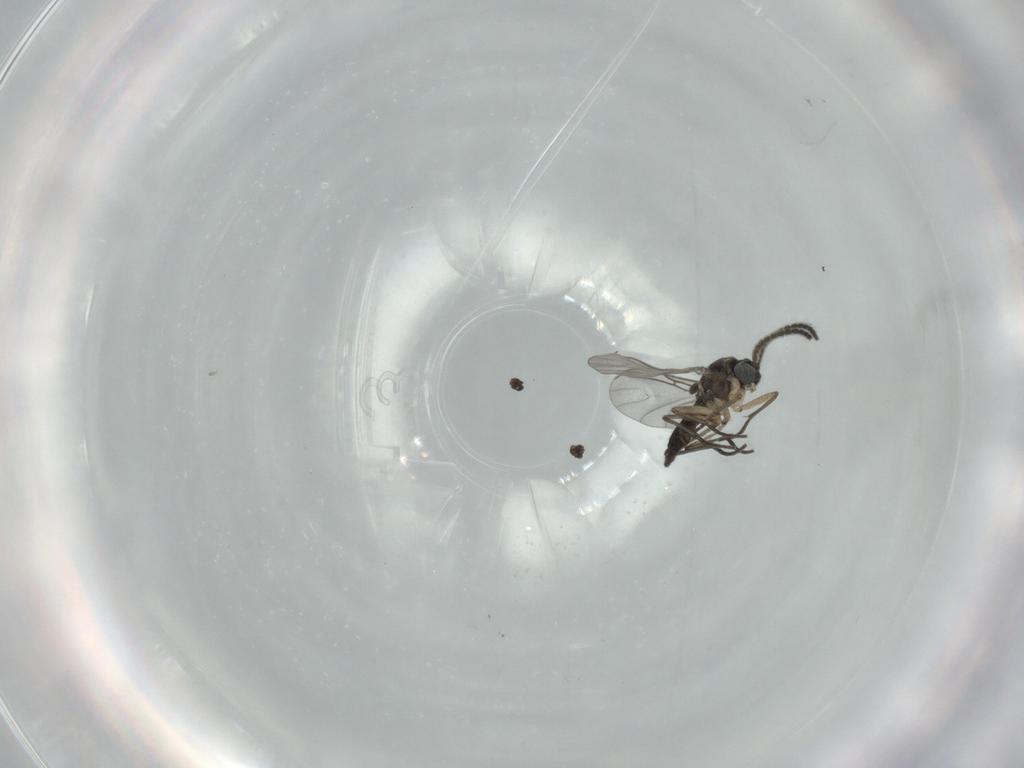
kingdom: Animalia
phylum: Arthropoda
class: Insecta
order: Diptera
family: Sciaridae
